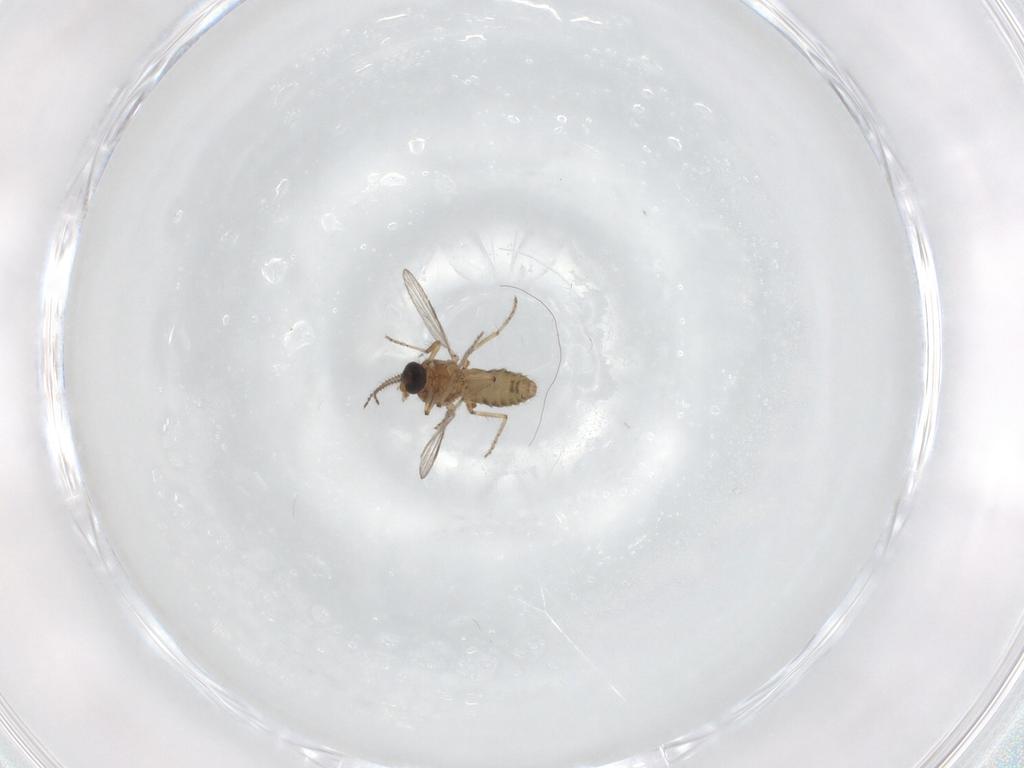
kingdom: Animalia
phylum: Arthropoda
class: Insecta
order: Diptera
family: Ceratopogonidae
